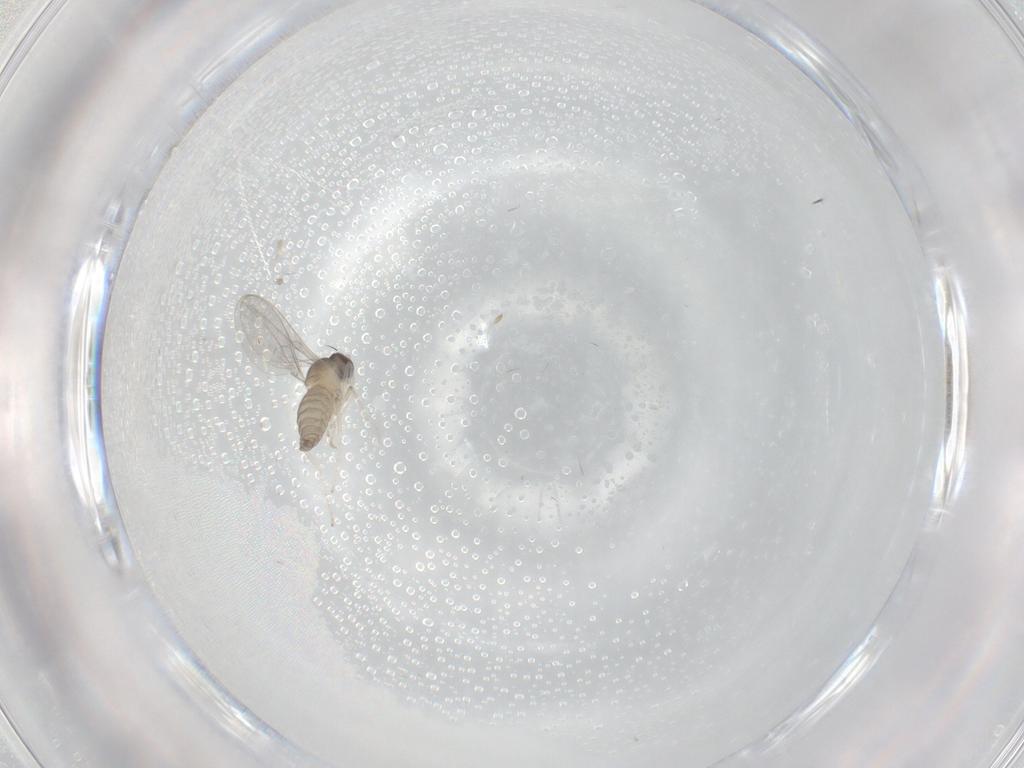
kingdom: Animalia
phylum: Arthropoda
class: Insecta
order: Diptera
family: Cecidomyiidae
